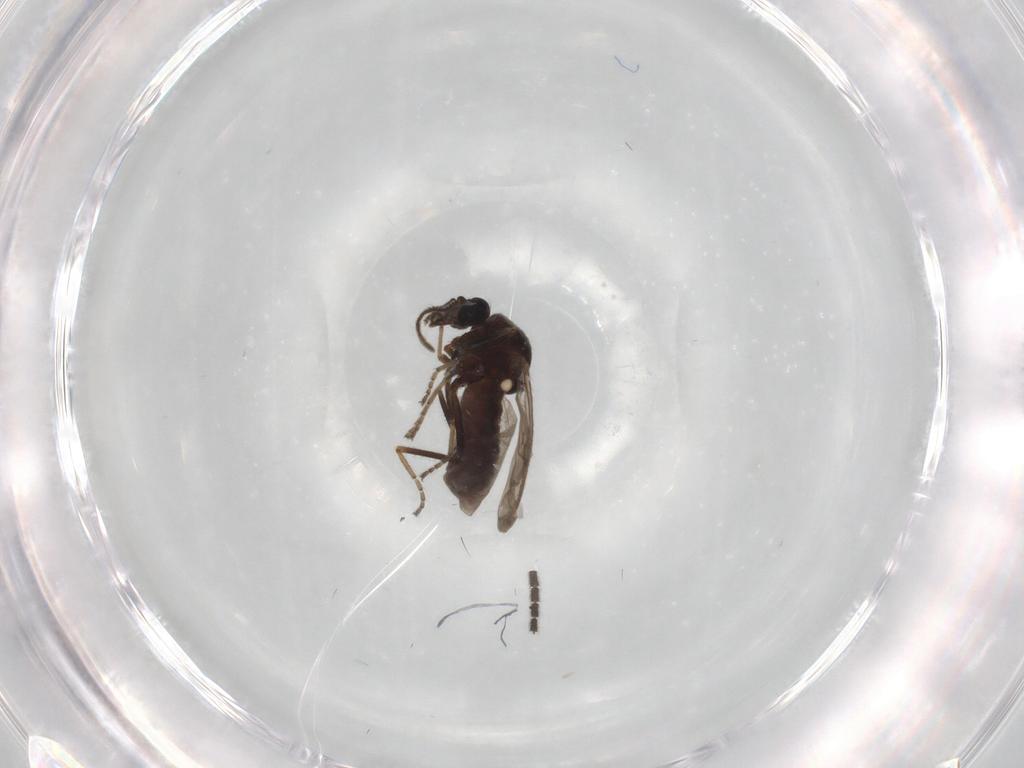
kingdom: Animalia
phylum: Arthropoda
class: Insecta
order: Diptera
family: Ceratopogonidae
